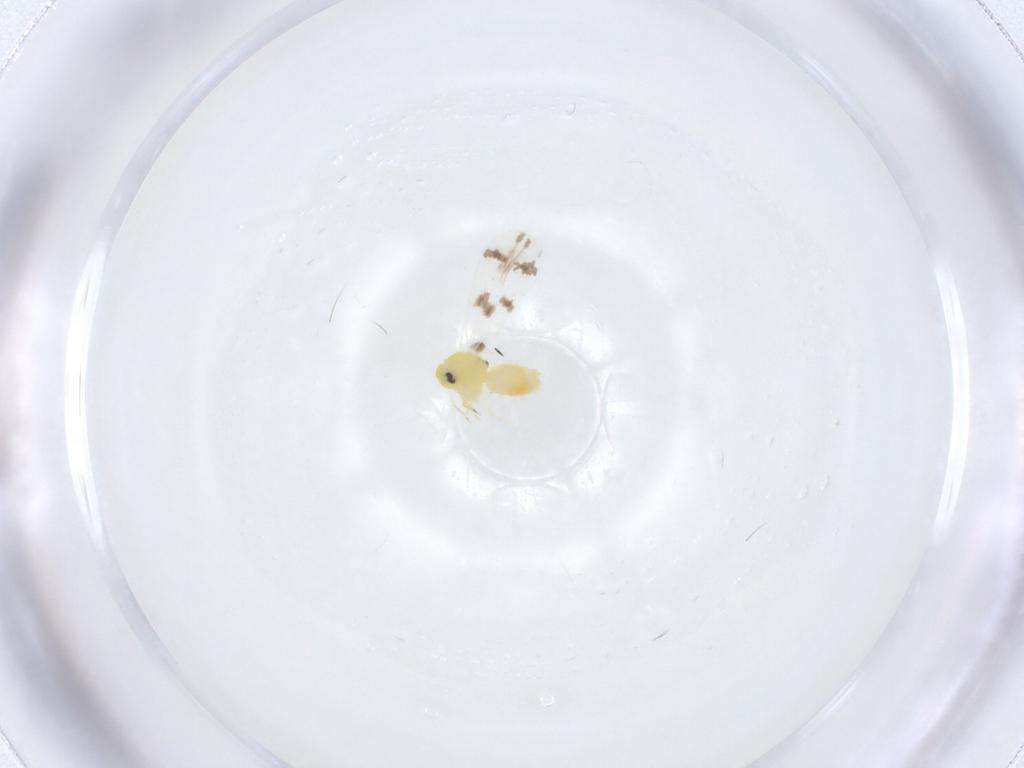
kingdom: Animalia
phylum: Arthropoda
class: Insecta
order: Hemiptera
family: Aleyrodidae
